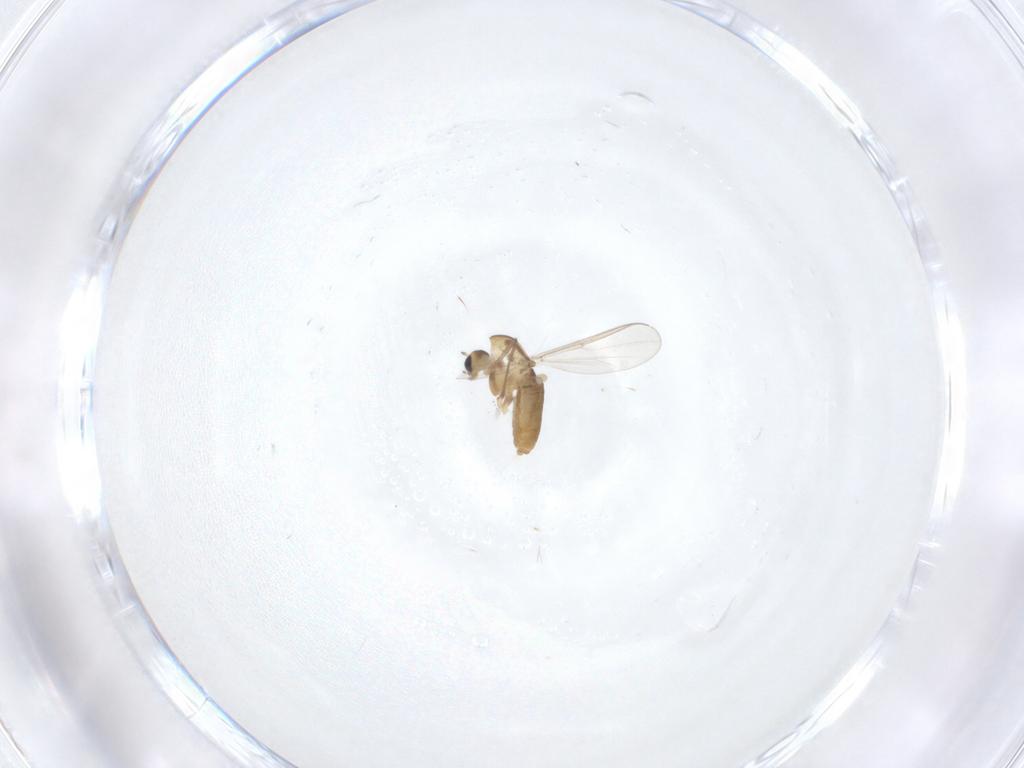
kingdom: Animalia
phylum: Arthropoda
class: Insecta
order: Diptera
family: Chironomidae
